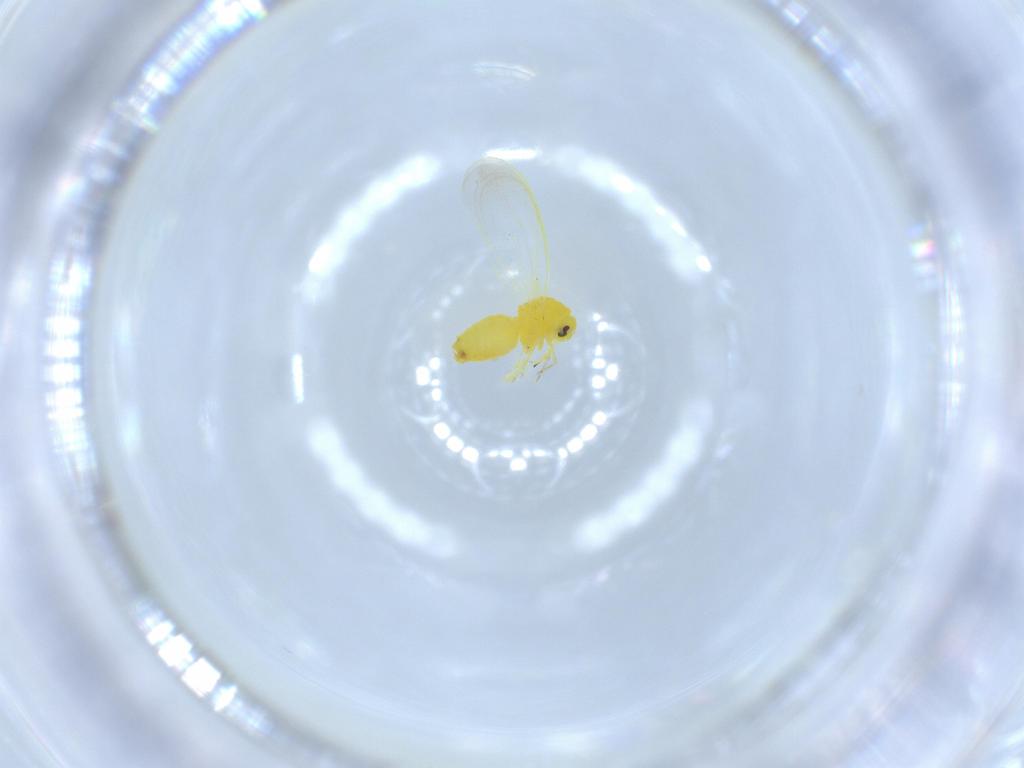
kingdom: Animalia
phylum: Arthropoda
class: Insecta
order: Hemiptera
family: Aleyrodidae
